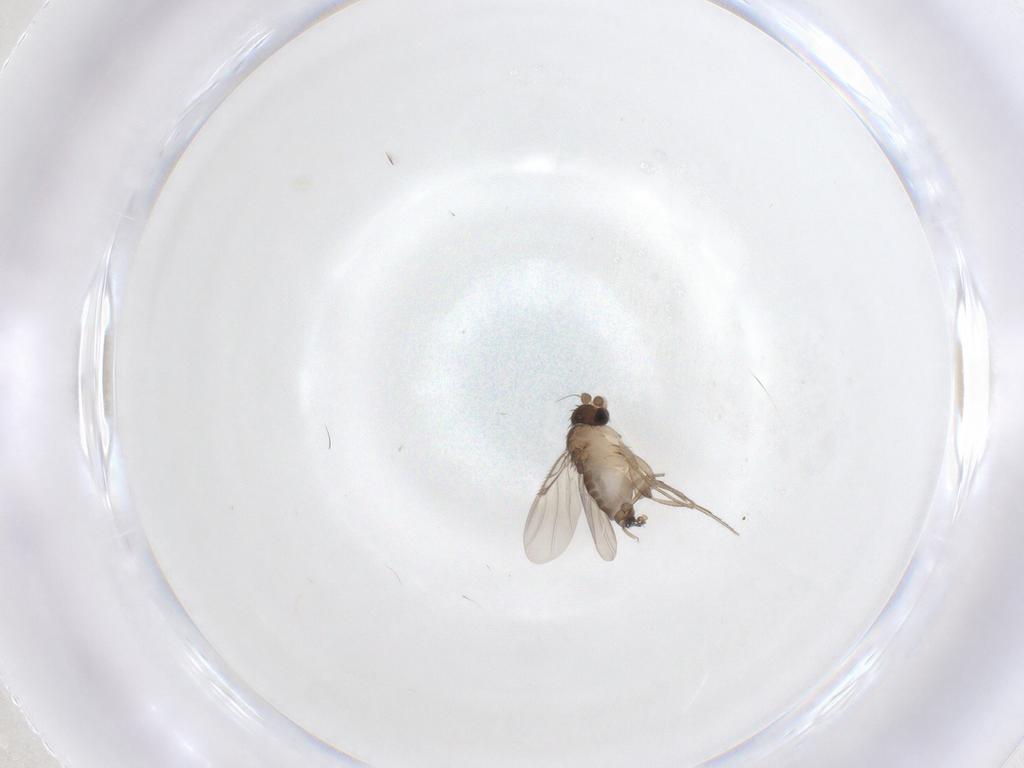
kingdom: Animalia
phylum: Arthropoda
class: Insecta
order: Diptera
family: Phoridae
